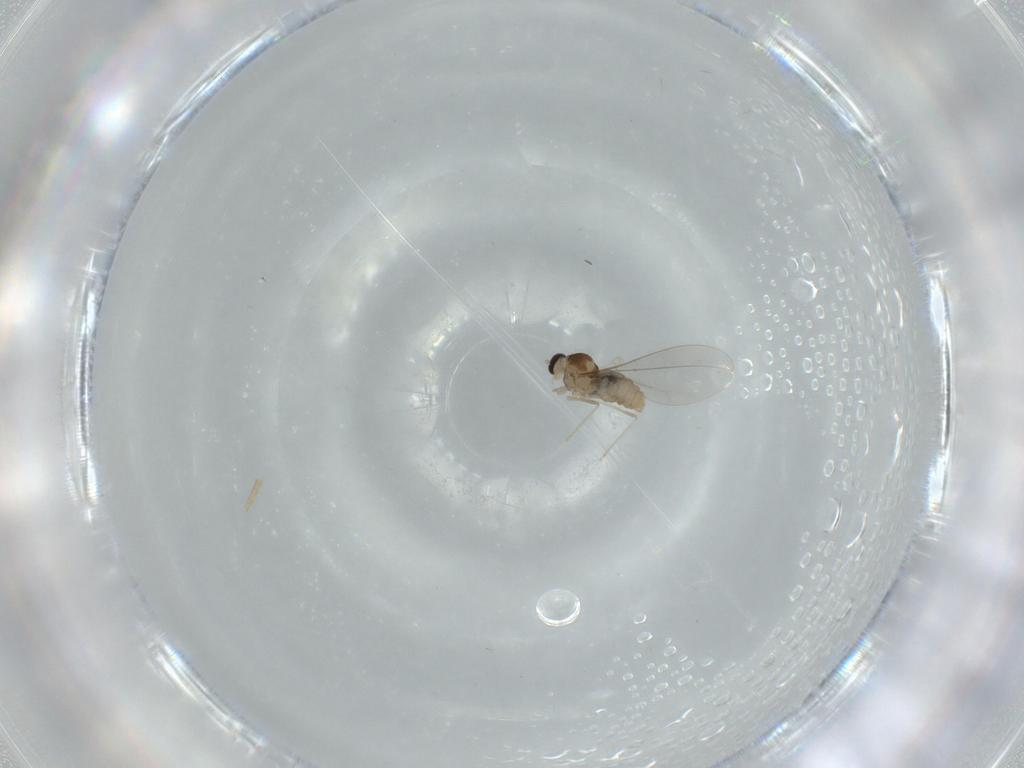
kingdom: Animalia
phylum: Arthropoda
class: Insecta
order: Diptera
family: Cecidomyiidae
